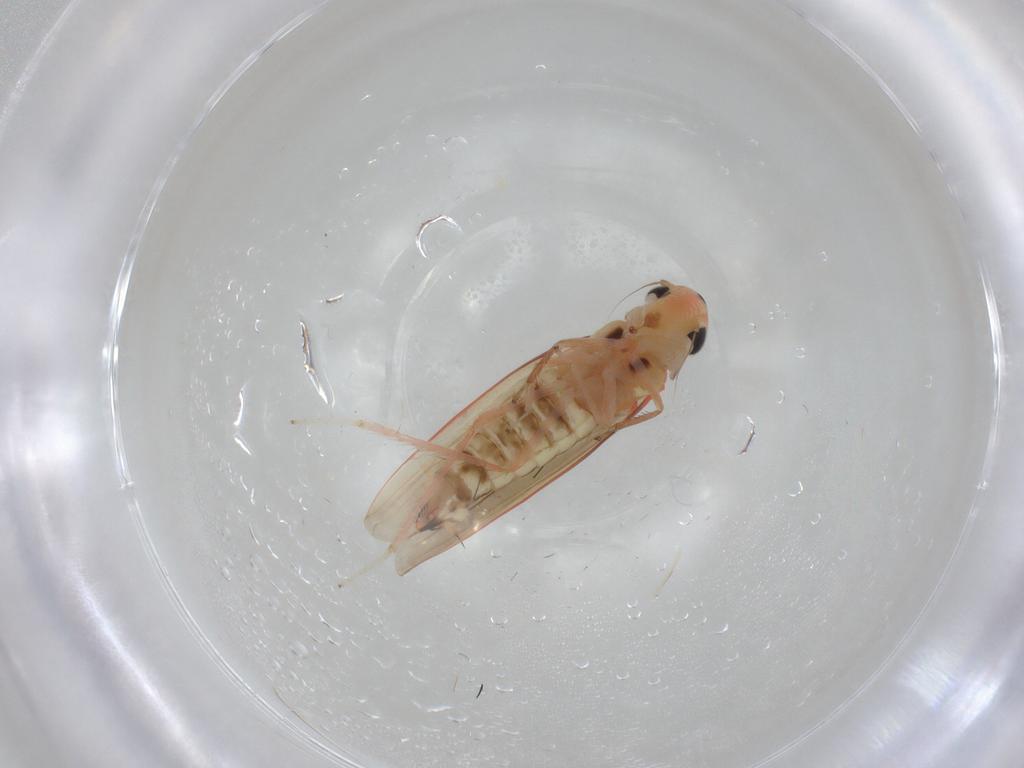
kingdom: Animalia
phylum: Arthropoda
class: Insecta
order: Hemiptera
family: Cicadellidae
